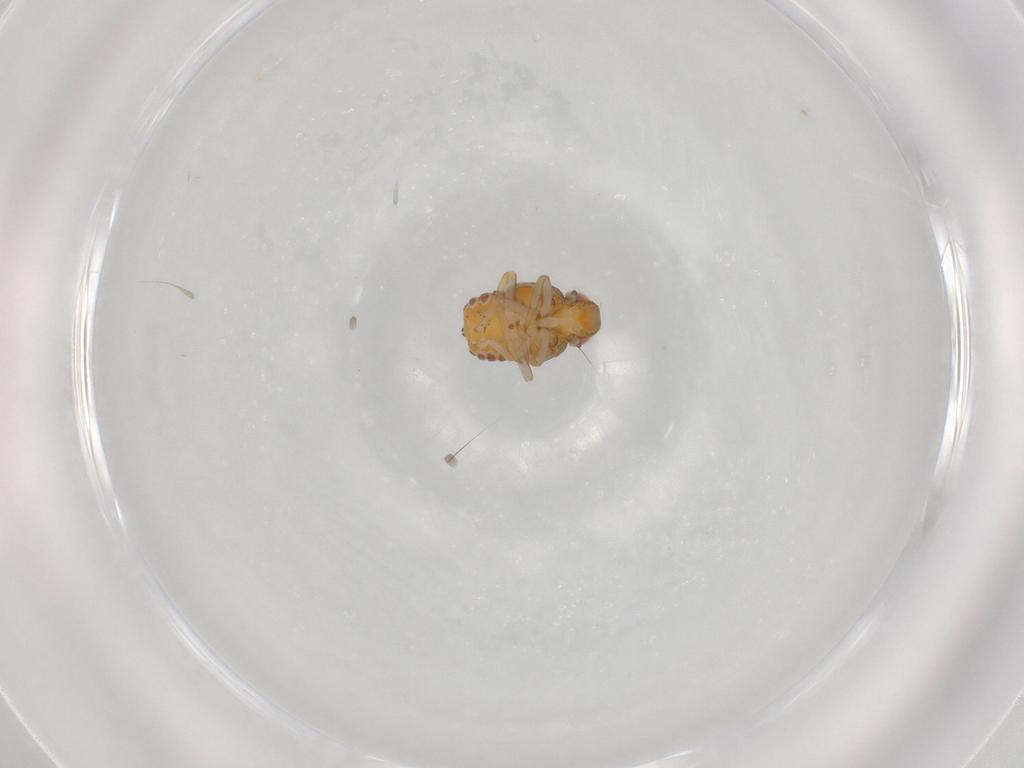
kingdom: Animalia
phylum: Arthropoda
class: Insecta
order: Hemiptera
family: Issidae
